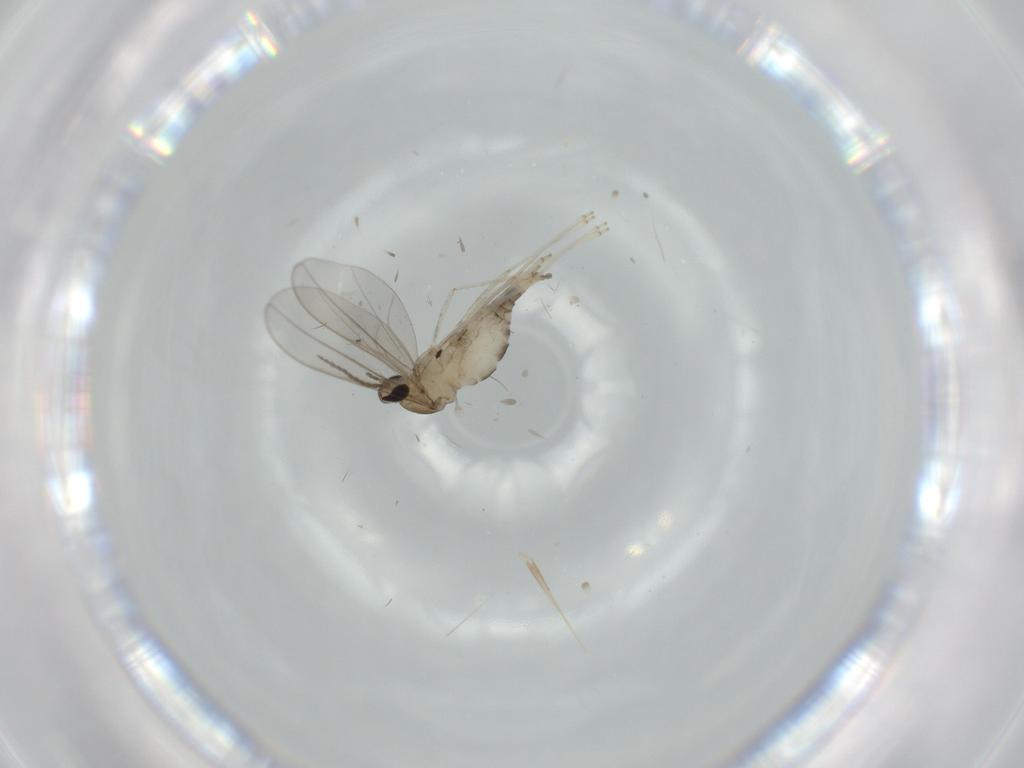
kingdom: Animalia
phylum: Arthropoda
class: Insecta
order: Diptera
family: Cecidomyiidae
